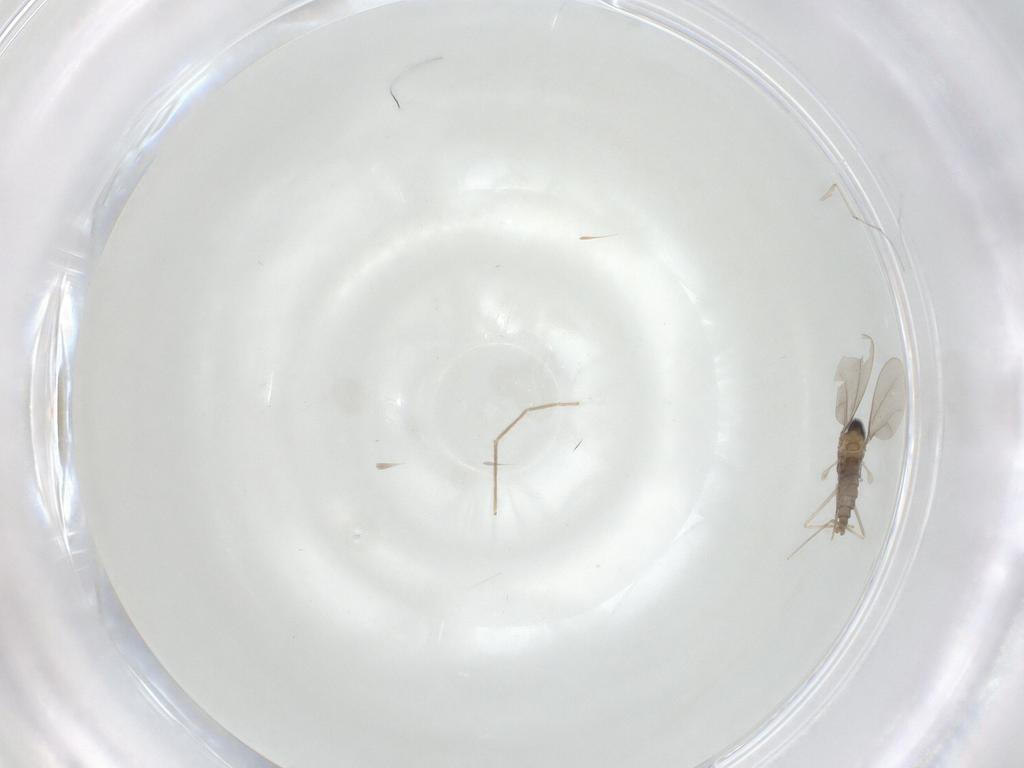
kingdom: Animalia
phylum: Arthropoda
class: Insecta
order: Diptera
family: Cecidomyiidae
